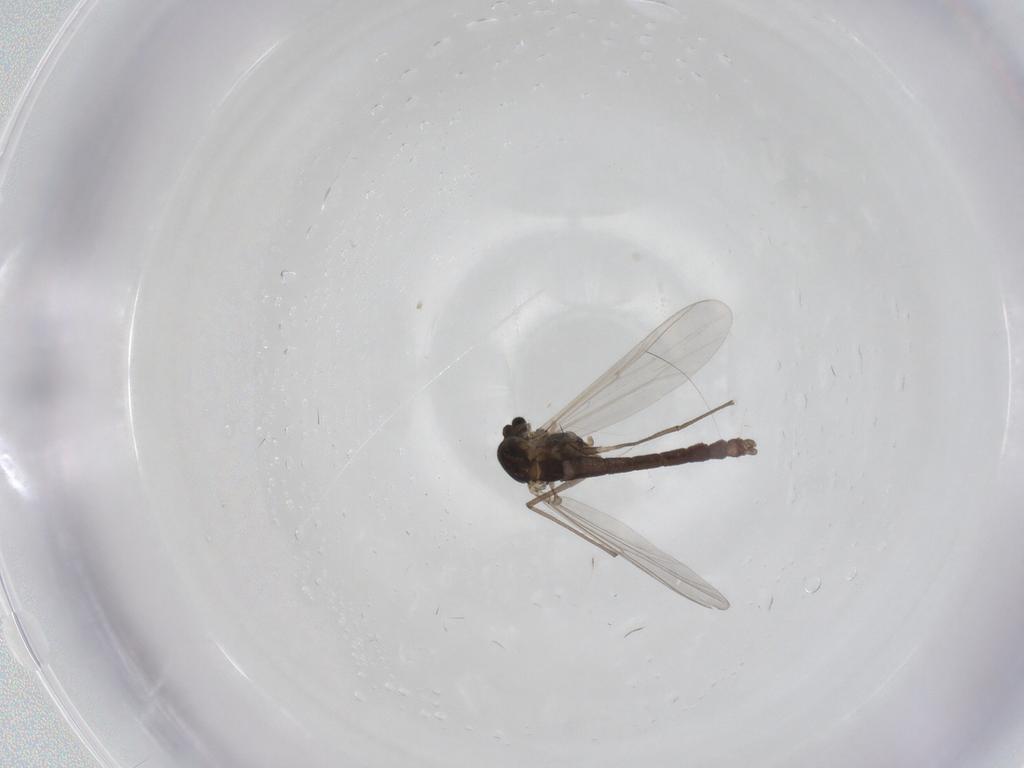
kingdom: Animalia
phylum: Arthropoda
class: Insecta
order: Diptera
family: Chironomidae
